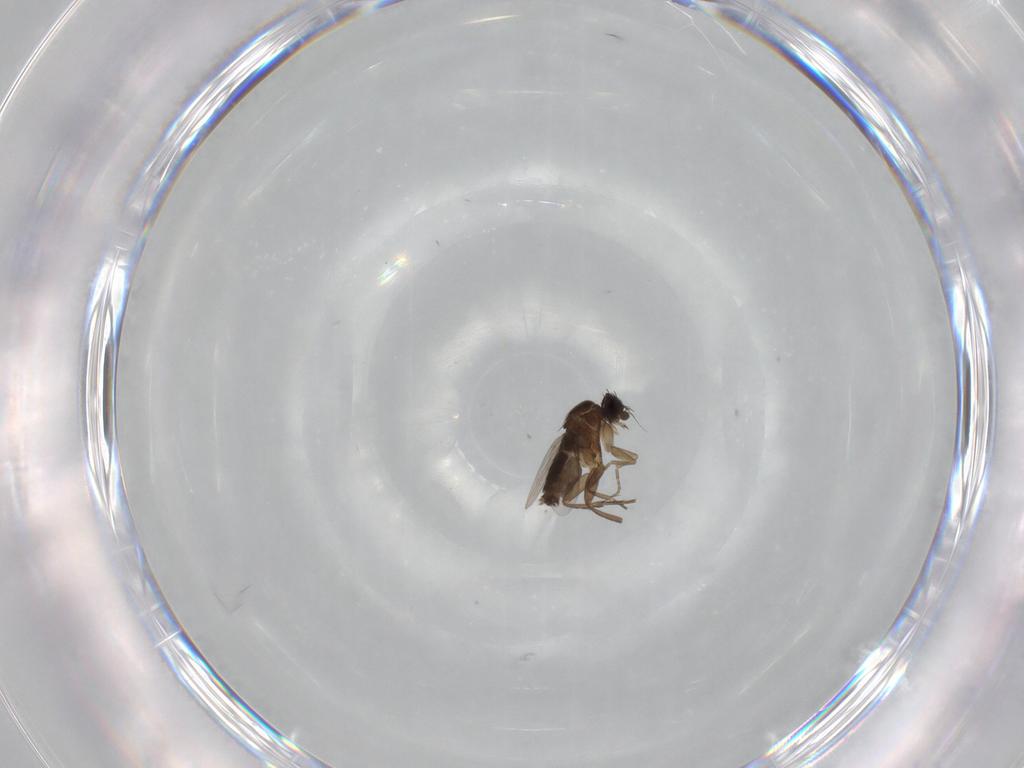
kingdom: Animalia
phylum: Arthropoda
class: Insecta
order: Diptera
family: Phoridae
